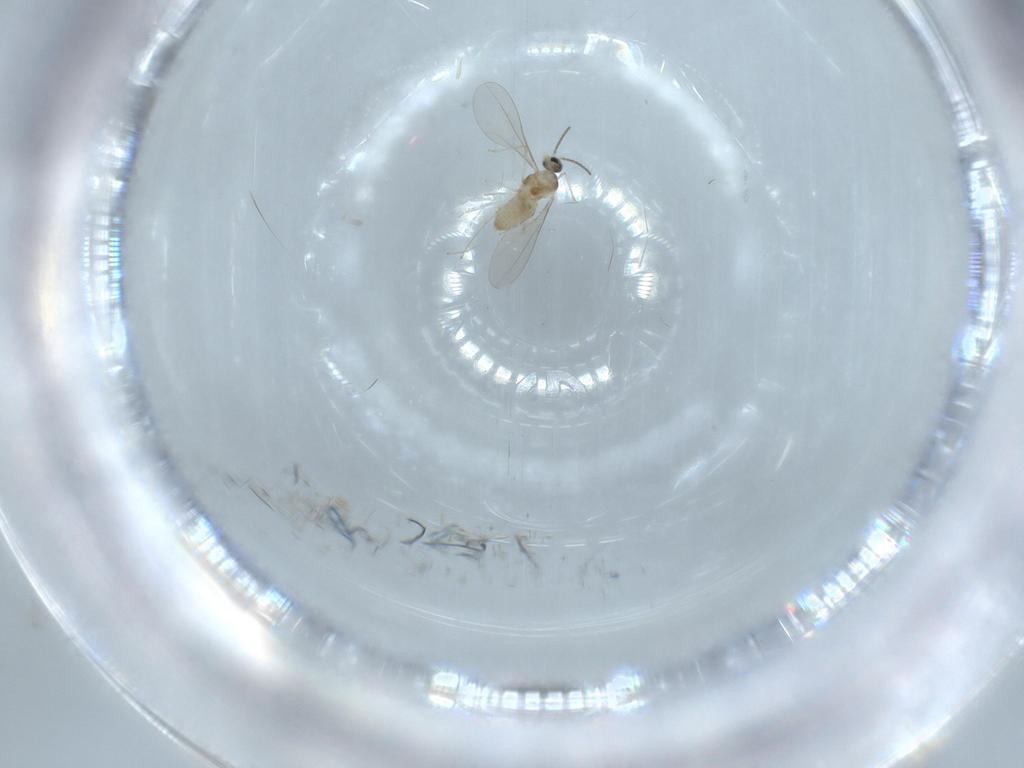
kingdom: Animalia
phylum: Arthropoda
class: Insecta
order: Diptera
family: Cecidomyiidae
